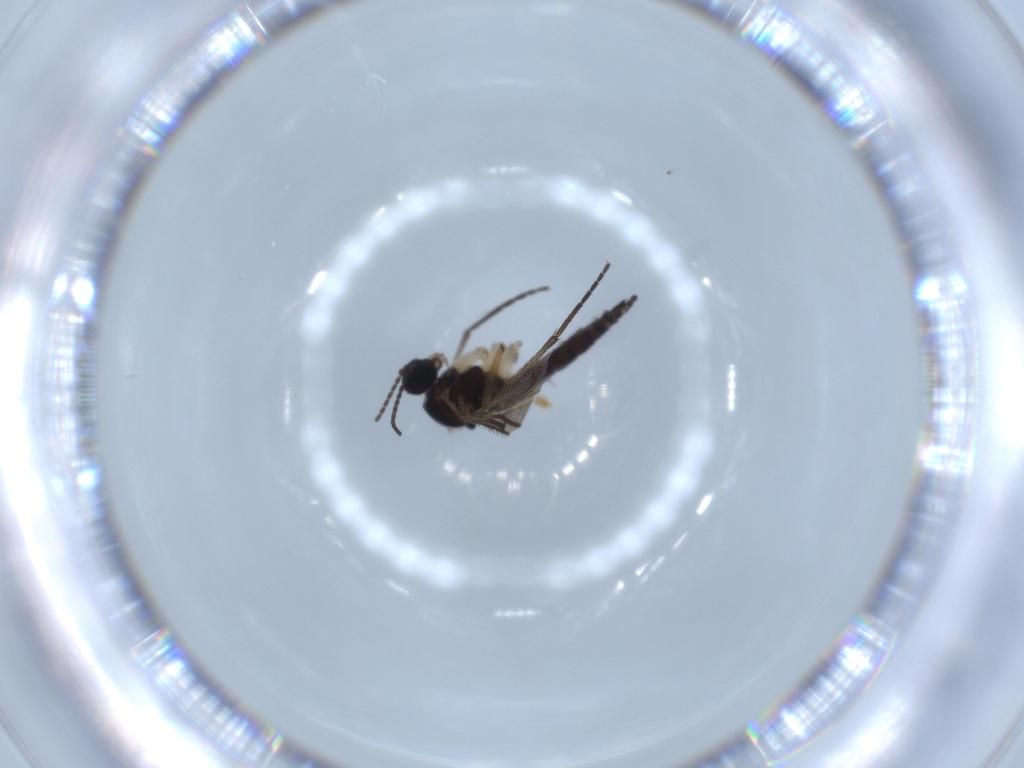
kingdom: Animalia
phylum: Arthropoda
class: Insecta
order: Diptera
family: Sciaridae
